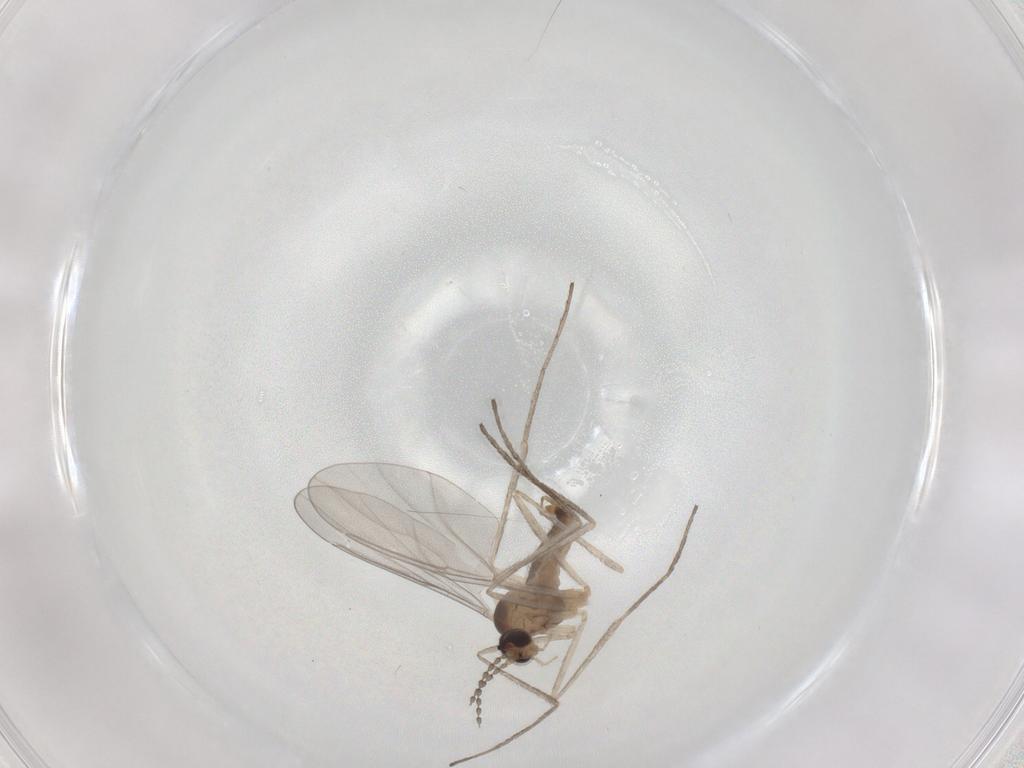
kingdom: Animalia
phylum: Arthropoda
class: Insecta
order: Diptera
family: Cecidomyiidae
